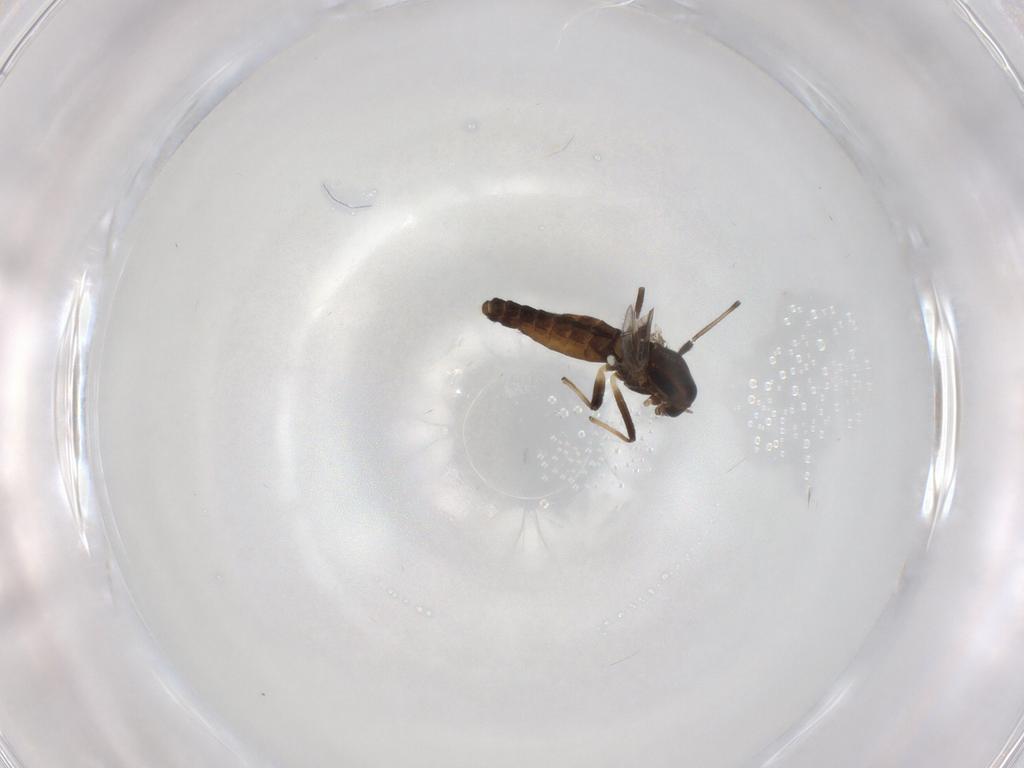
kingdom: Animalia
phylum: Arthropoda
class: Insecta
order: Diptera
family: Chironomidae
